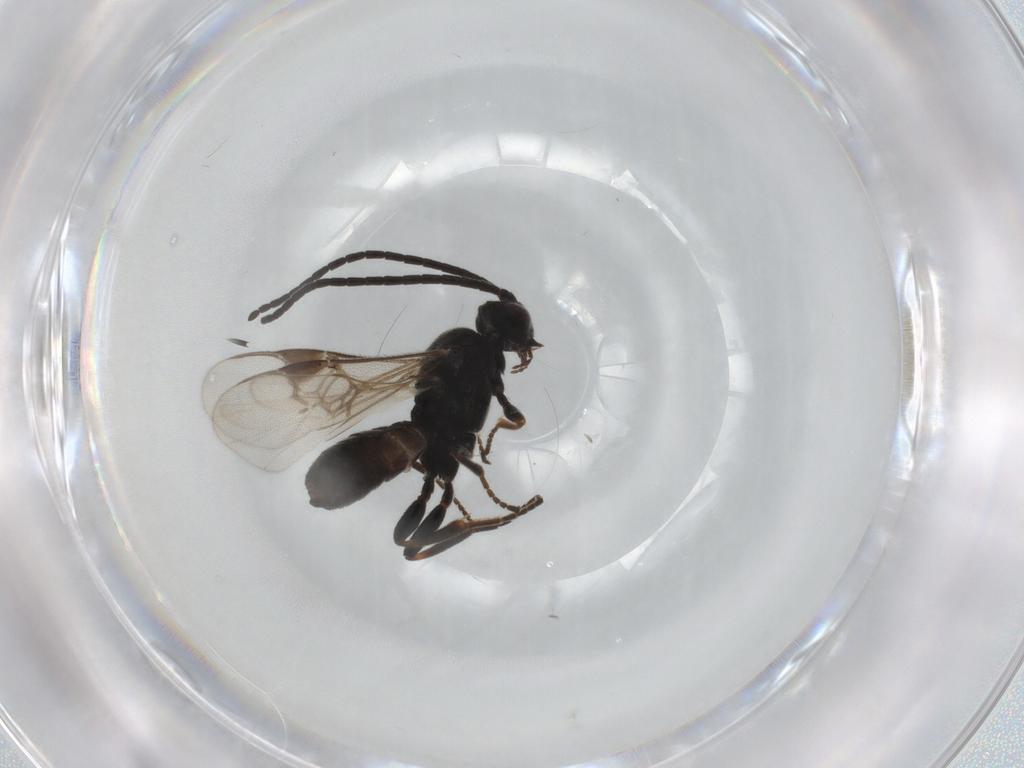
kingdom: Animalia
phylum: Arthropoda
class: Insecta
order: Hymenoptera
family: Braconidae
